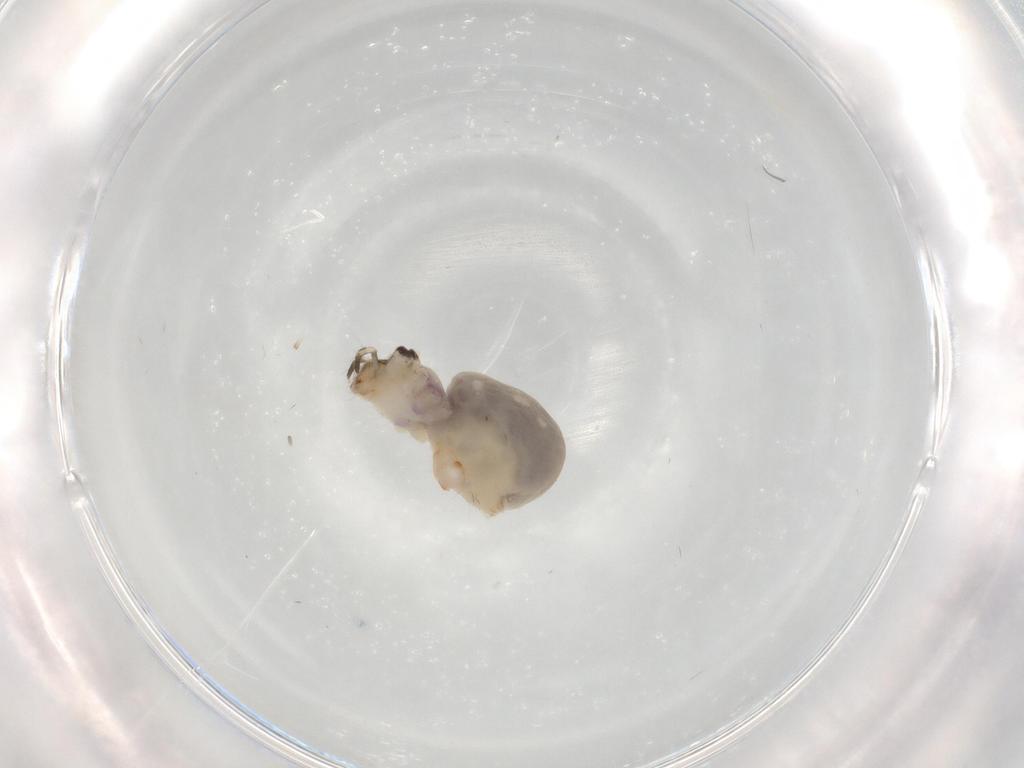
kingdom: Animalia
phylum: Arthropoda
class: Arachnida
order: Araneae
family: Pholcidae
